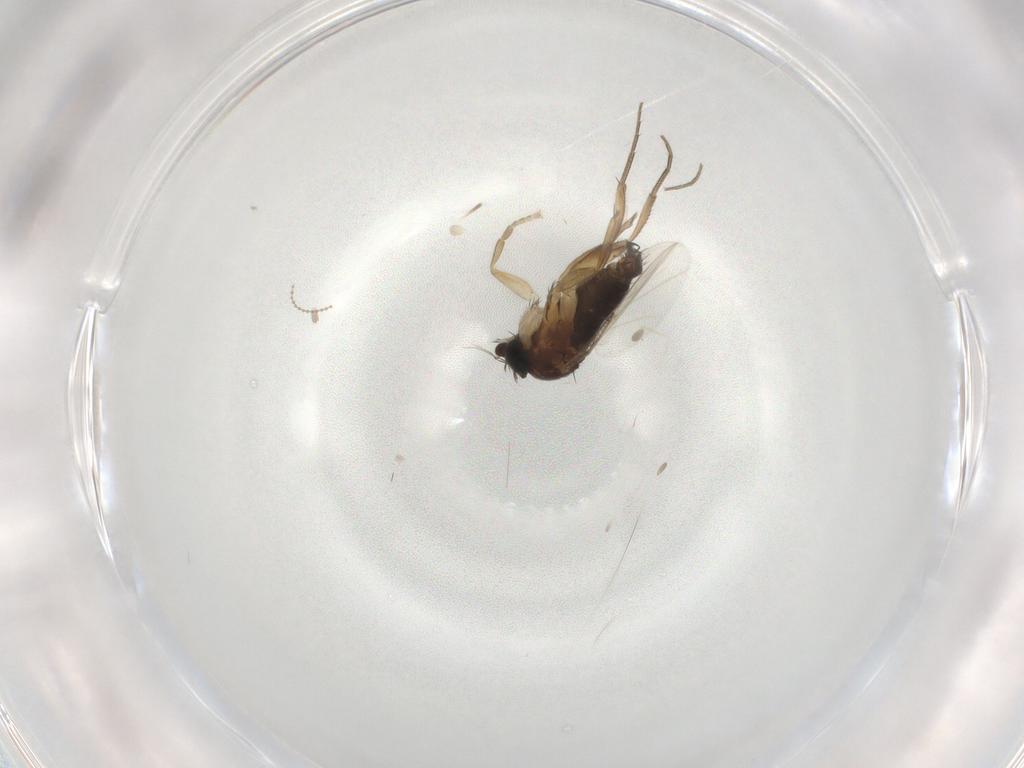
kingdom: Animalia
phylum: Arthropoda
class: Insecta
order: Diptera
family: Phoridae
